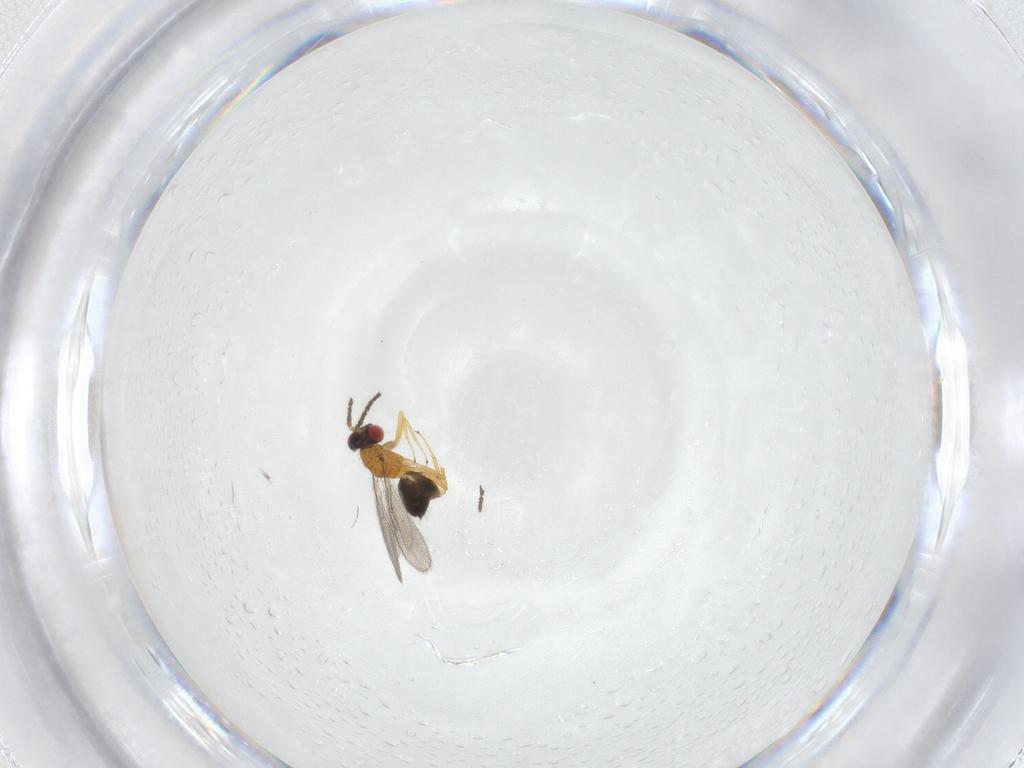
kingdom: Animalia
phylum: Arthropoda
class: Insecta
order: Hymenoptera
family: Eulophidae
